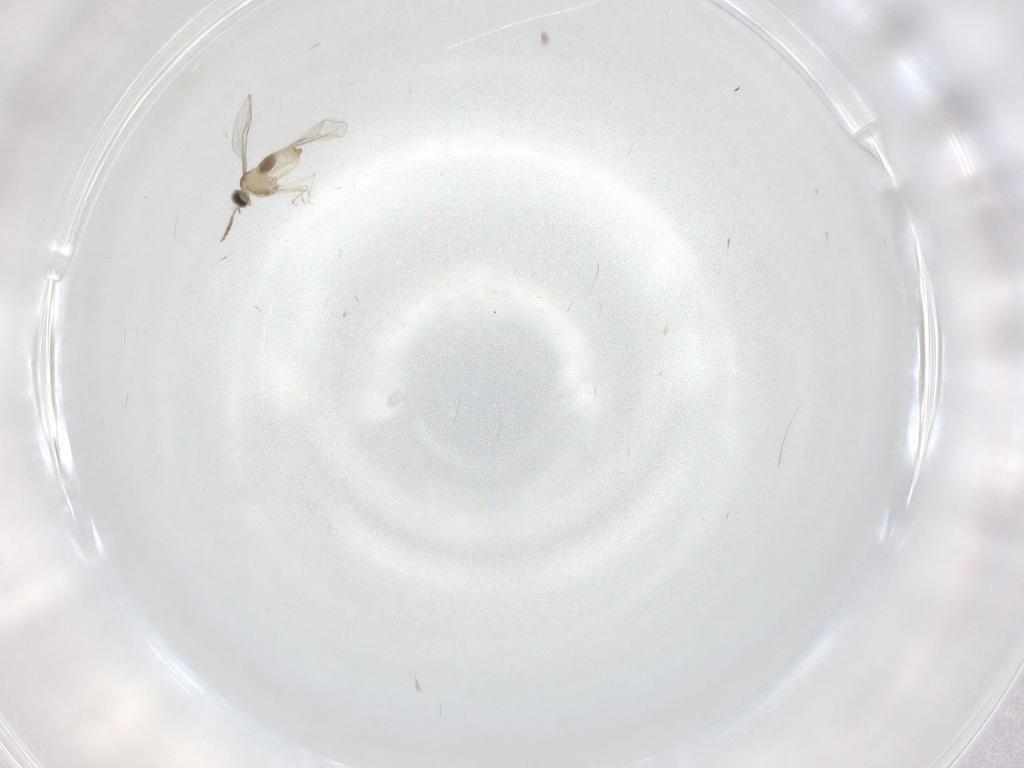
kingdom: Animalia
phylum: Arthropoda
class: Insecta
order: Diptera
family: Cecidomyiidae
